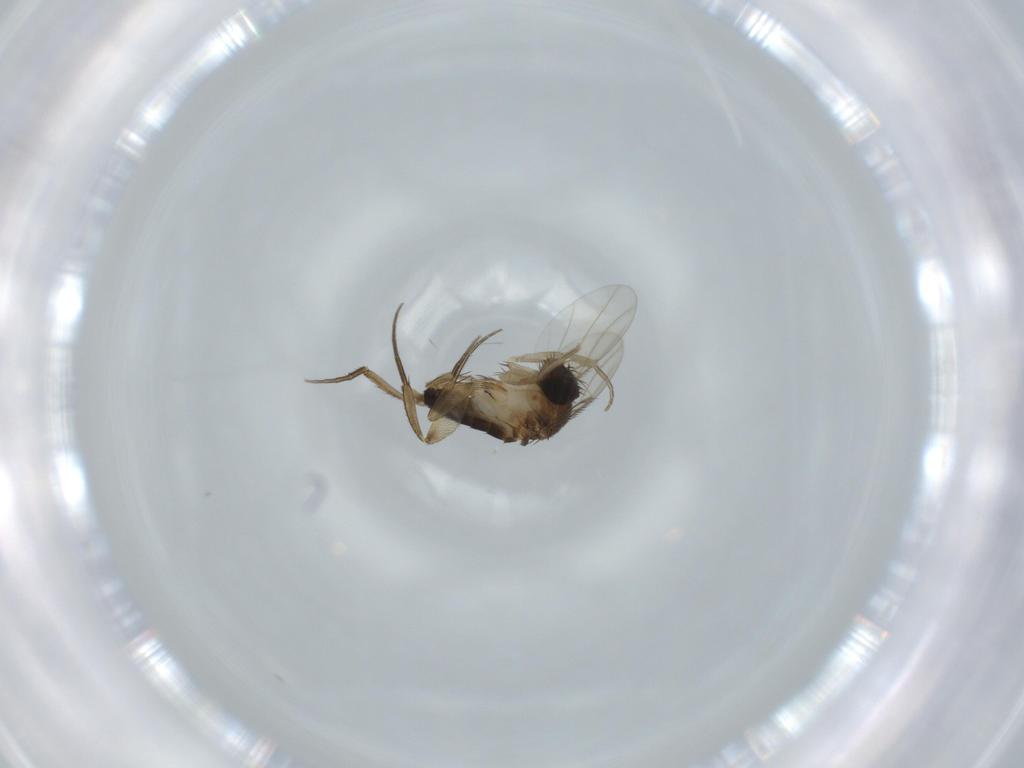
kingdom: Animalia
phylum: Arthropoda
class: Insecta
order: Diptera
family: Phoridae
